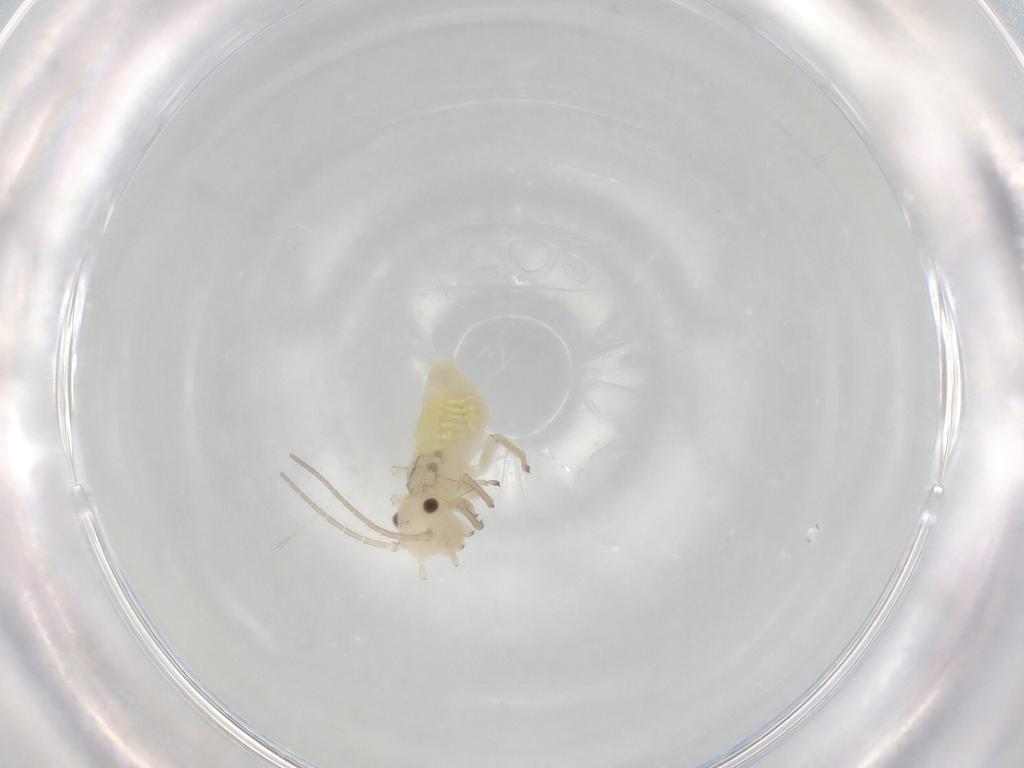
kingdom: Animalia
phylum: Arthropoda
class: Insecta
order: Psocodea
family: Caeciliusidae
